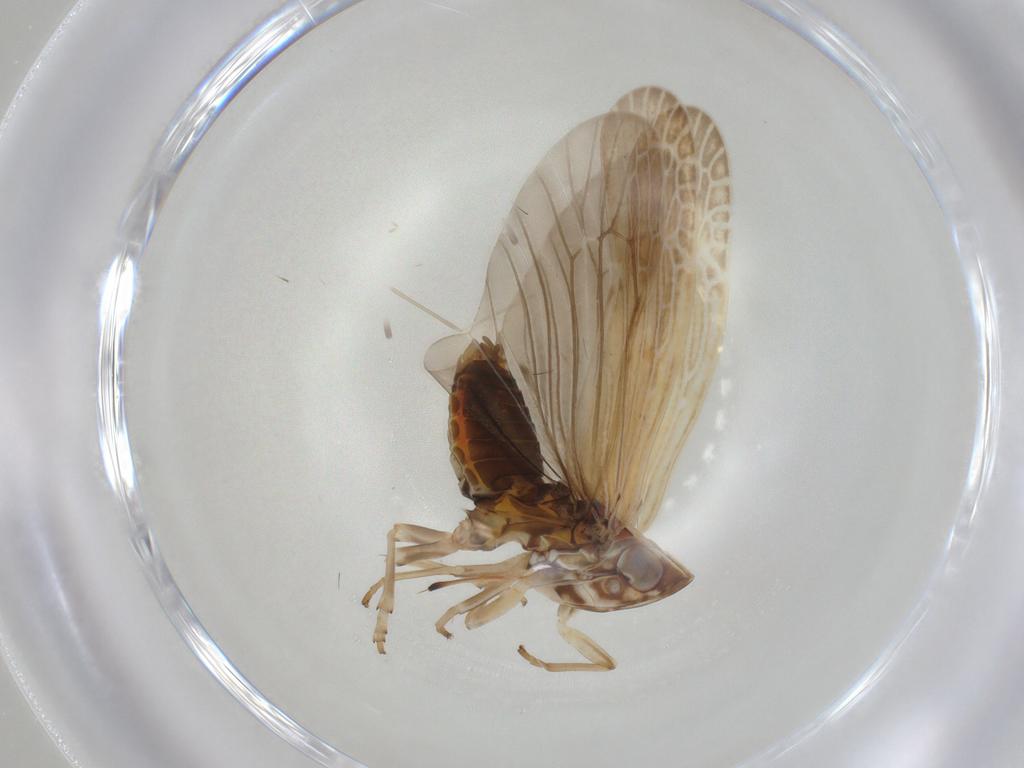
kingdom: Animalia
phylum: Arthropoda
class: Insecta
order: Hemiptera
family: Achilidae
